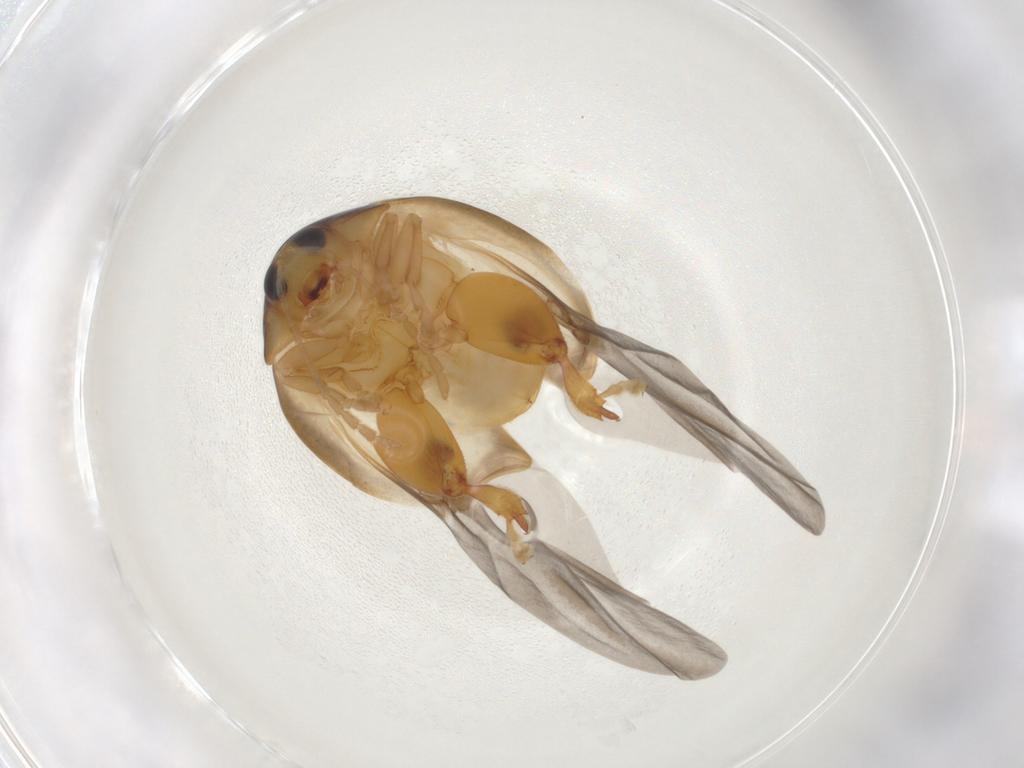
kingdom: Animalia
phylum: Arthropoda
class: Insecta
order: Coleoptera
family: Chrysomelidae
